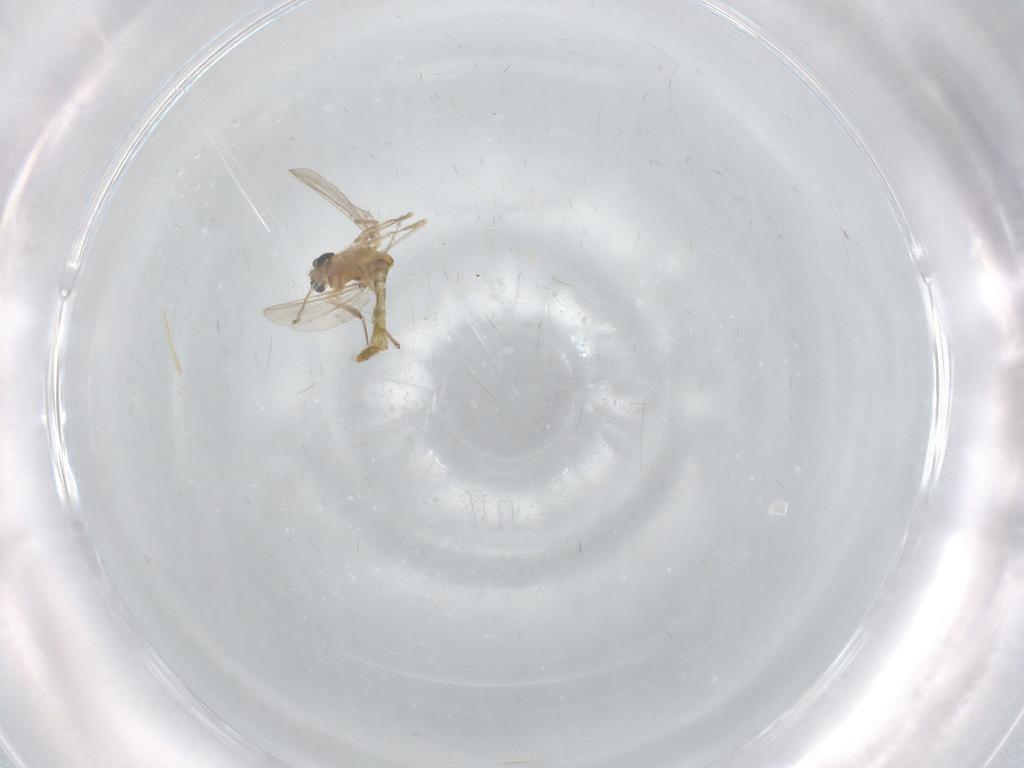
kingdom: Animalia
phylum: Arthropoda
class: Insecta
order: Diptera
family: Chironomidae
